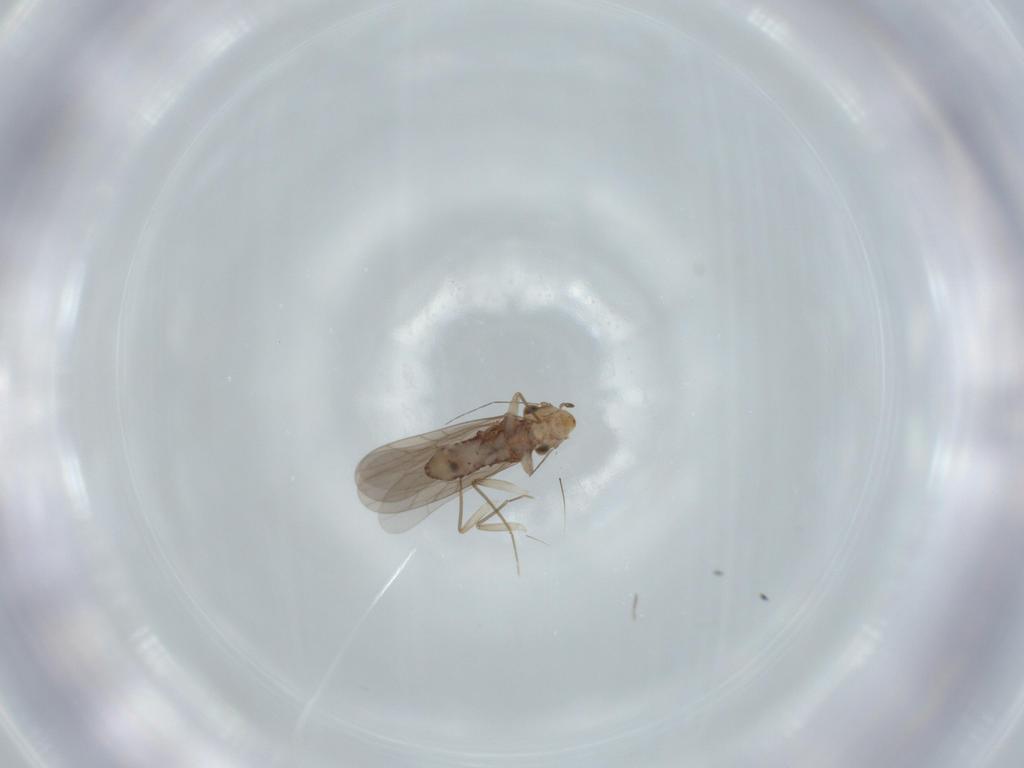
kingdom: Animalia
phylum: Arthropoda
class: Insecta
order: Psocodea
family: Lepidopsocidae
